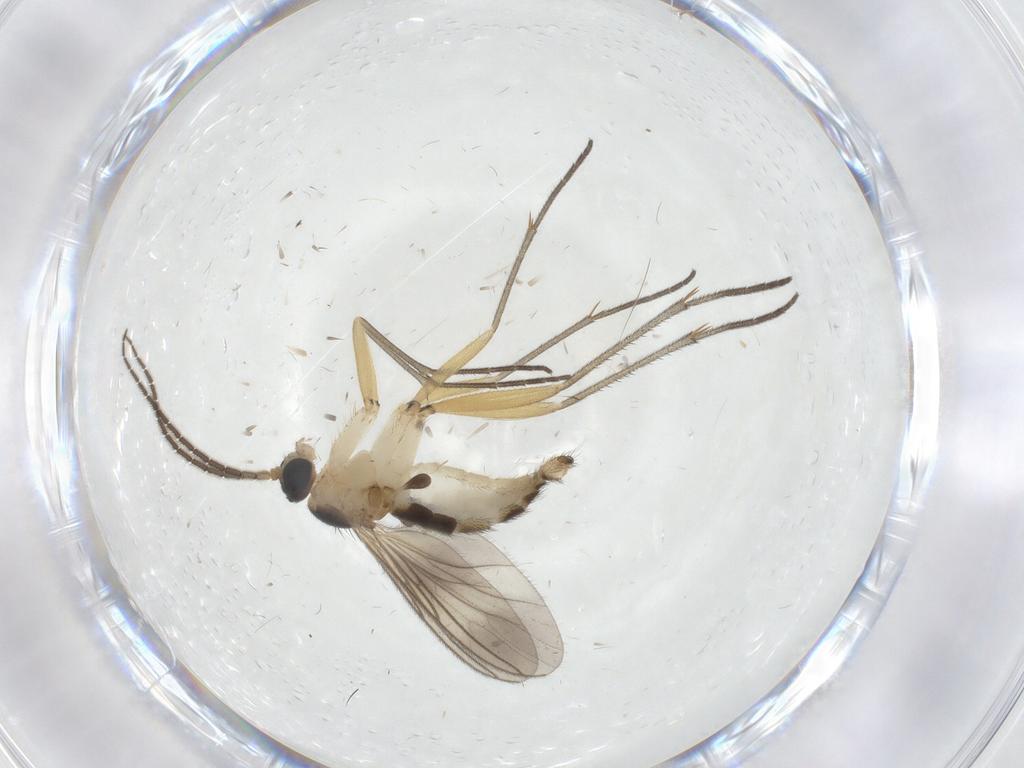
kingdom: Animalia
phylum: Arthropoda
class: Insecta
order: Diptera
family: Sciaridae
